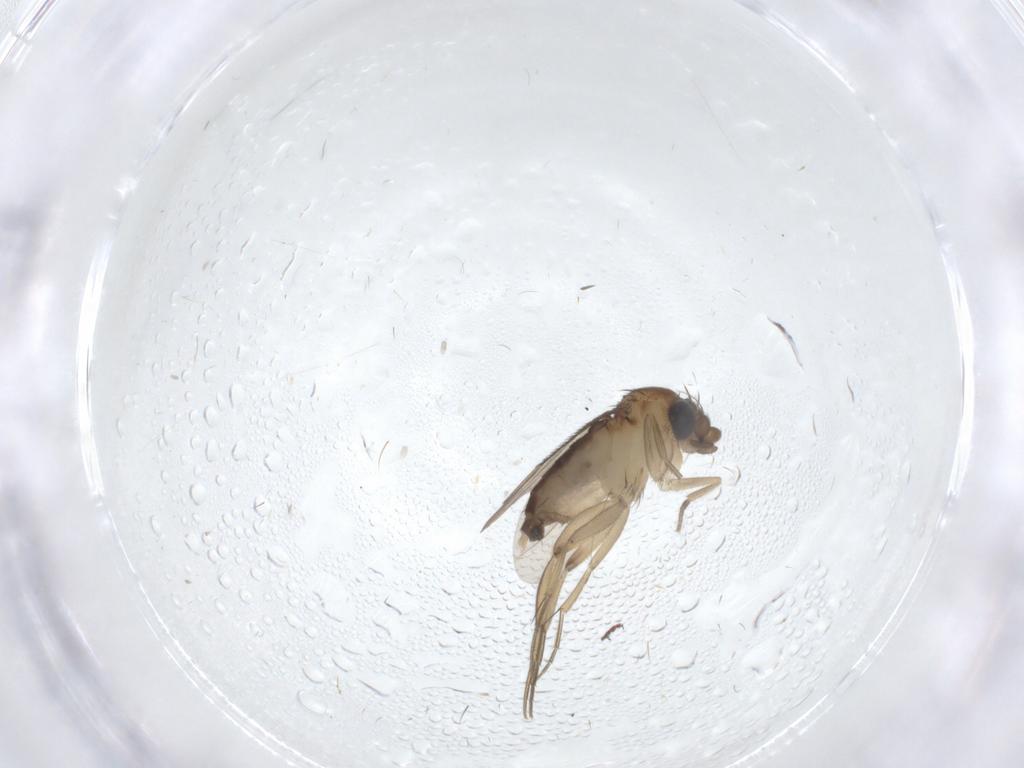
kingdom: Animalia
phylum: Arthropoda
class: Insecta
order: Diptera
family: Phoridae
